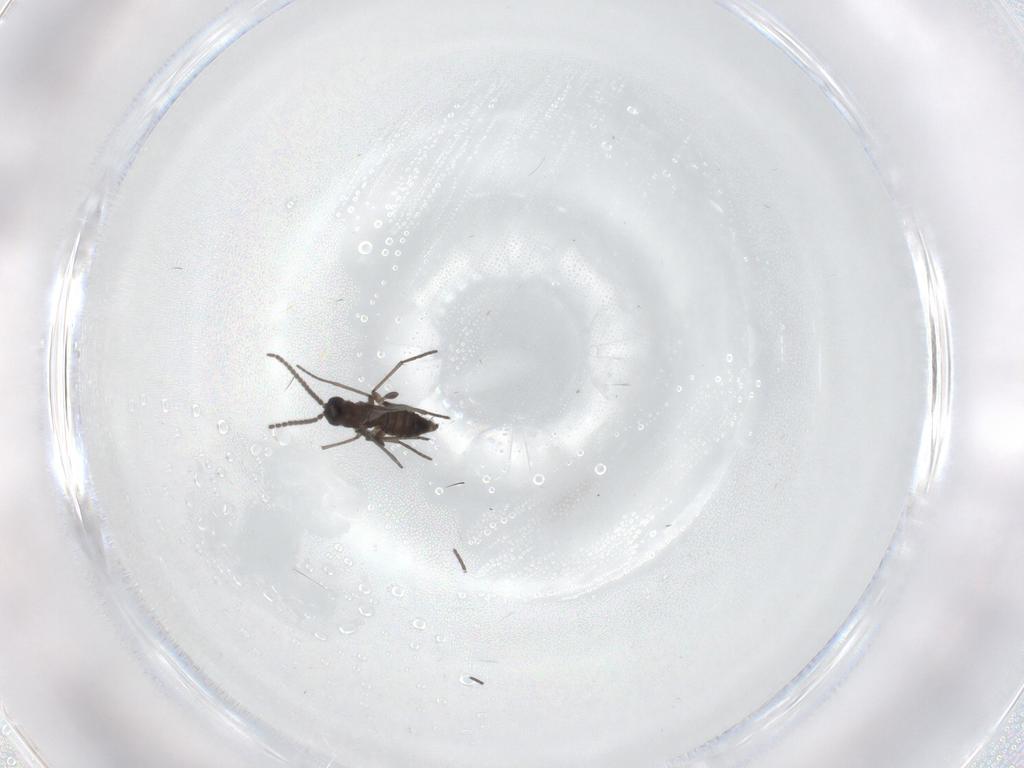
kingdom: Animalia
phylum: Arthropoda
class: Insecta
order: Diptera
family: Sciaridae
